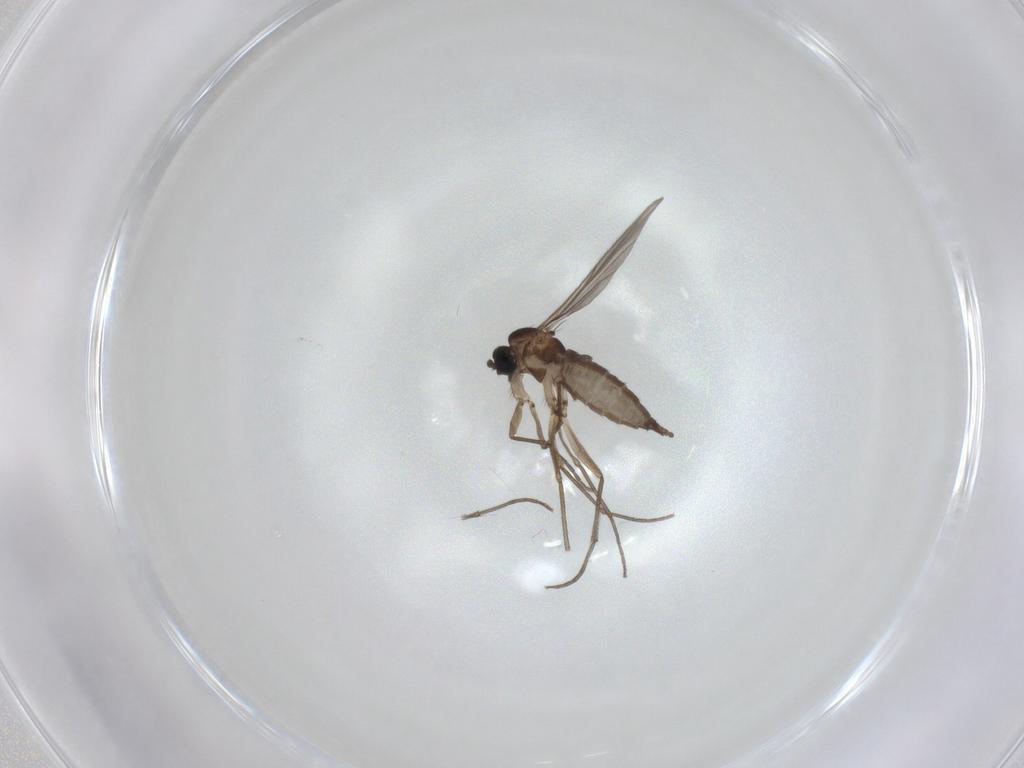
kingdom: Animalia
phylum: Arthropoda
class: Insecta
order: Diptera
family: Sciaridae
